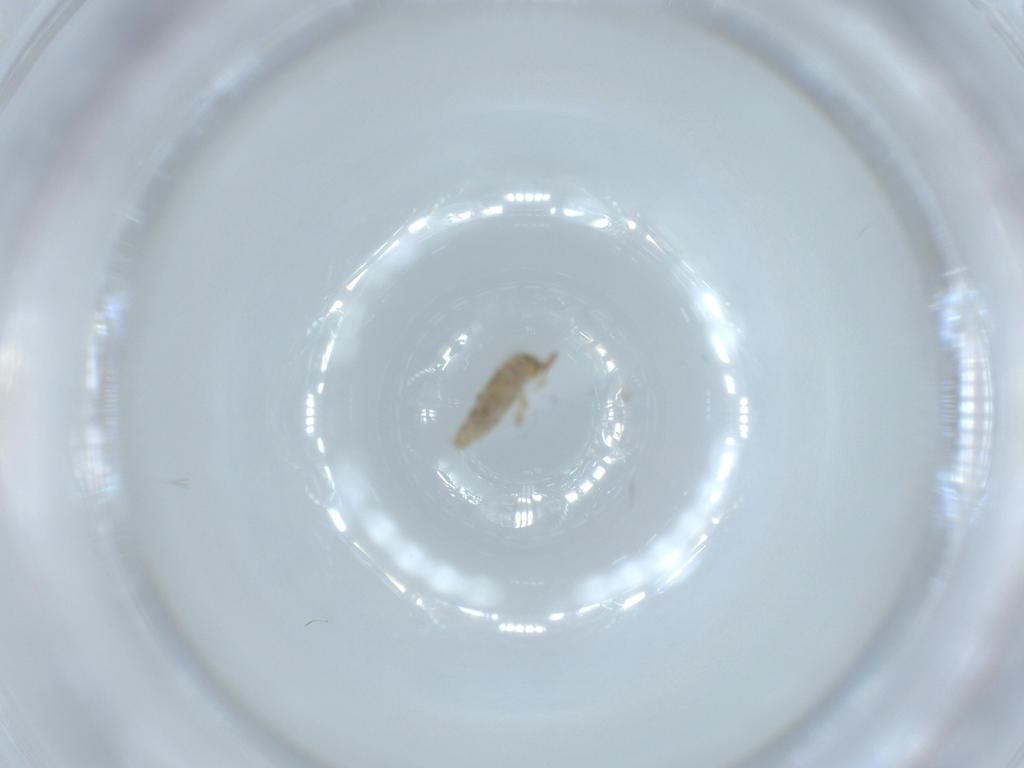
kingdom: Animalia
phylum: Arthropoda
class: Collembola
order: Entomobryomorpha
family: Entomobryidae
